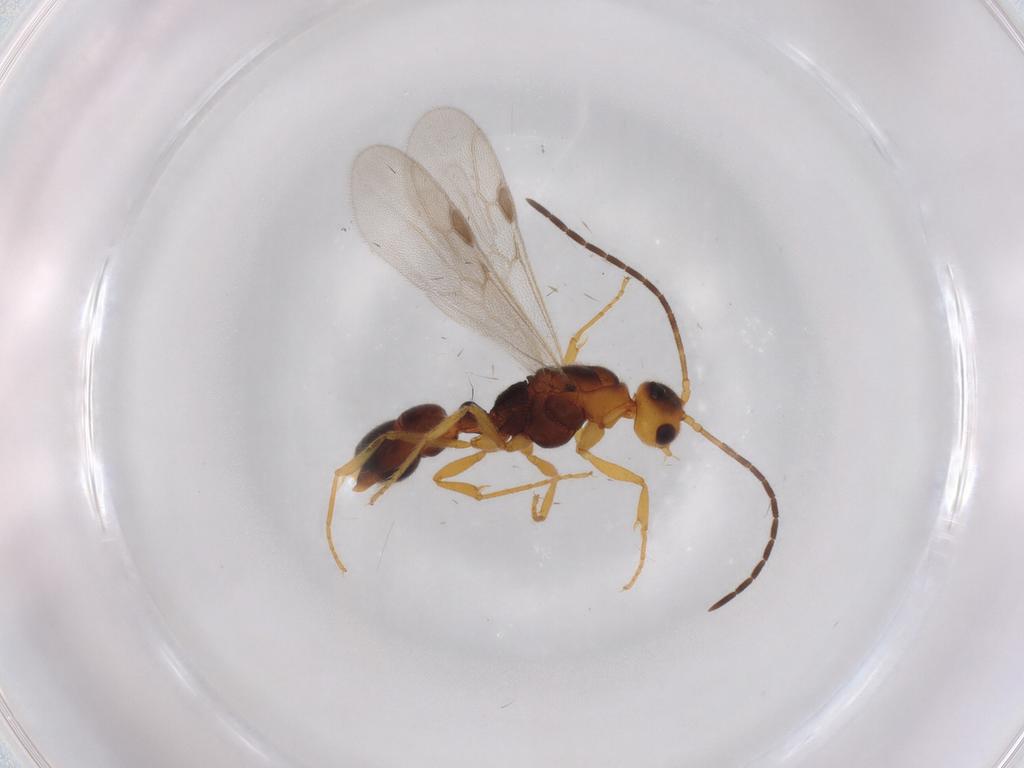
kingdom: Animalia
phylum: Arthropoda
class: Insecta
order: Hymenoptera
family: Formicidae
